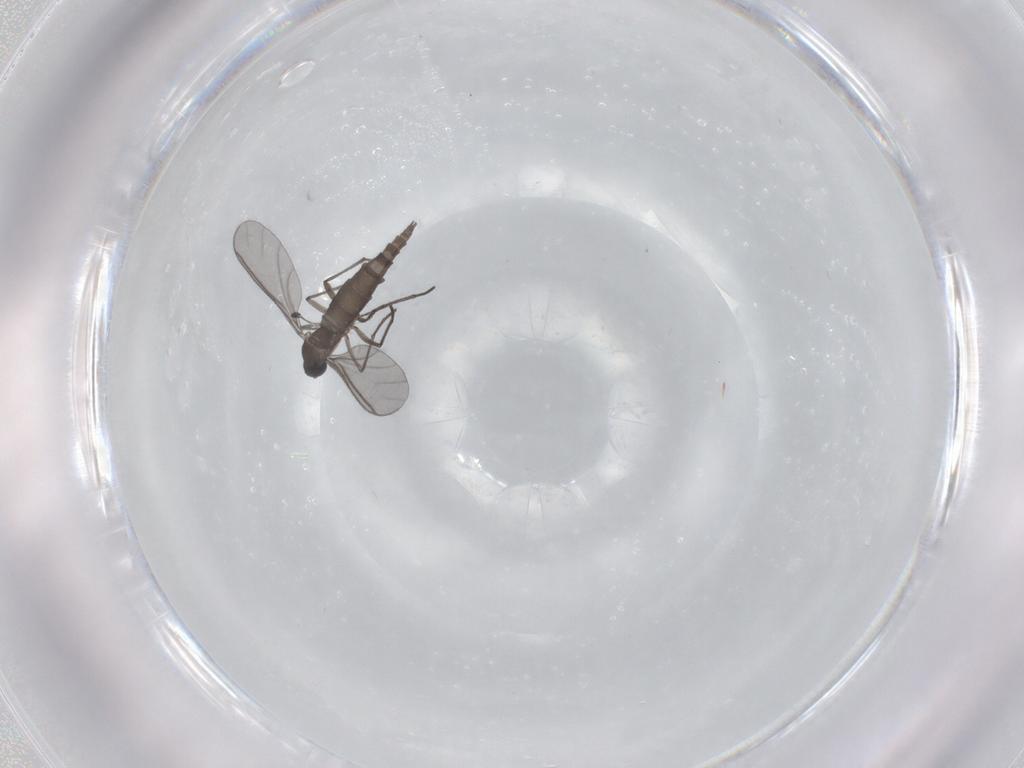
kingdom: Animalia
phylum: Arthropoda
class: Insecta
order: Diptera
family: Sciaridae
